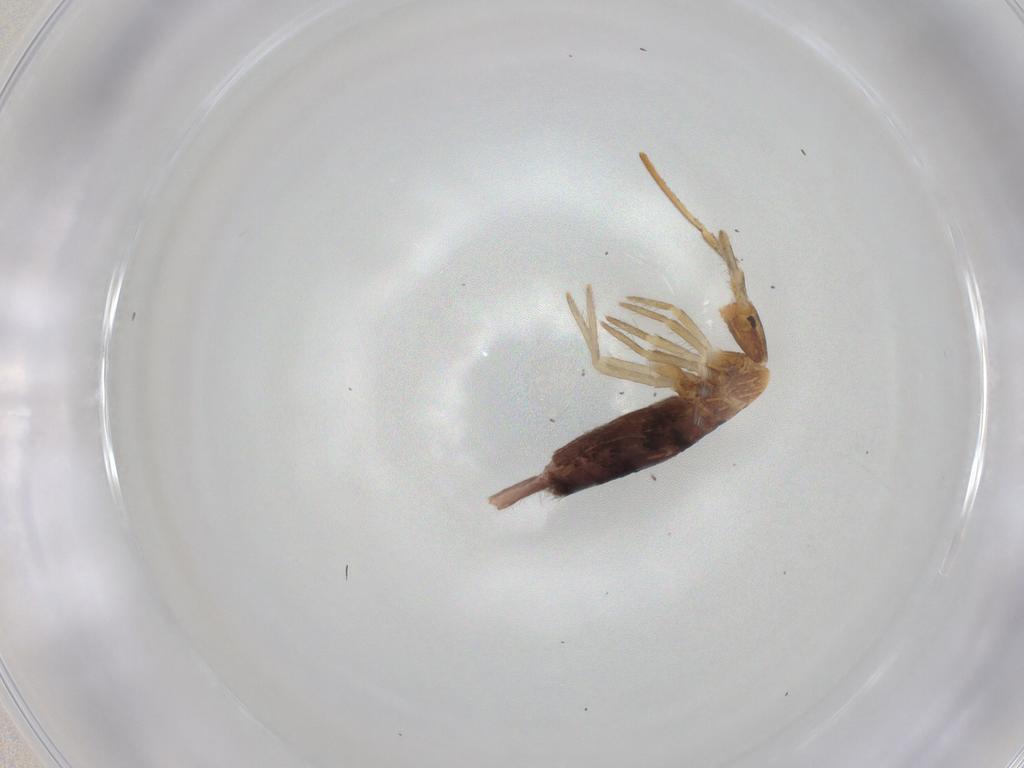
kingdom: Animalia
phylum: Arthropoda
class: Collembola
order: Entomobryomorpha
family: Entomobryidae
